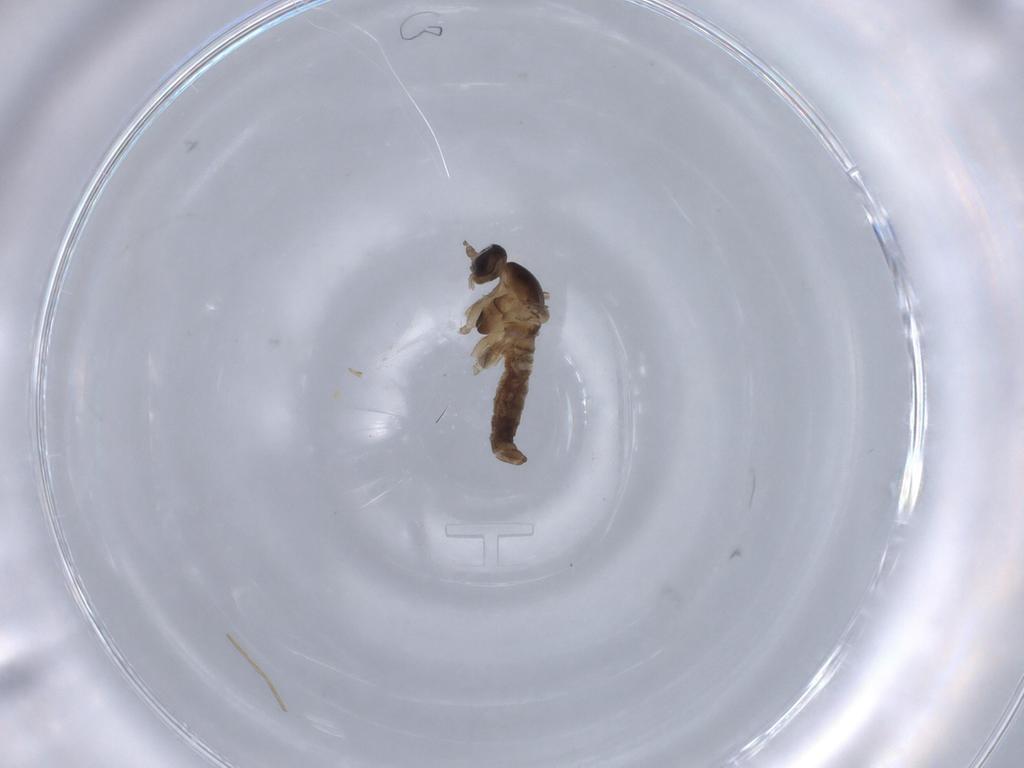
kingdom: Animalia
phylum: Arthropoda
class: Insecta
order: Diptera
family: Cecidomyiidae
